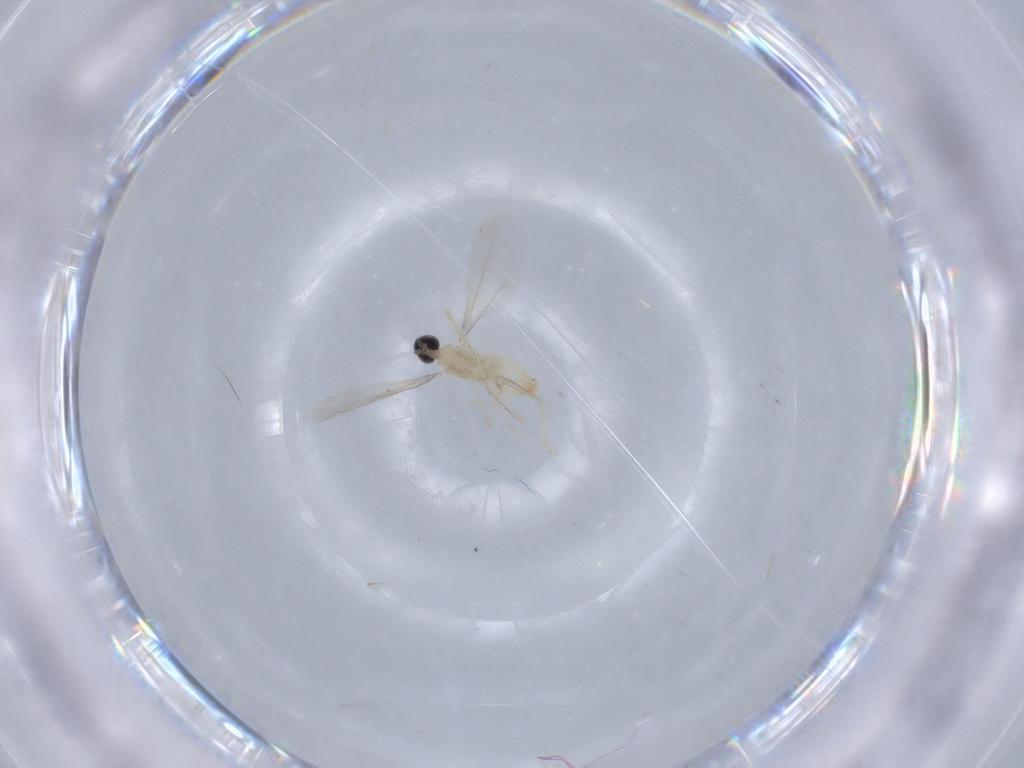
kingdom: Animalia
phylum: Arthropoda
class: Insecta
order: Diptera
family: Cecidomyiidae
